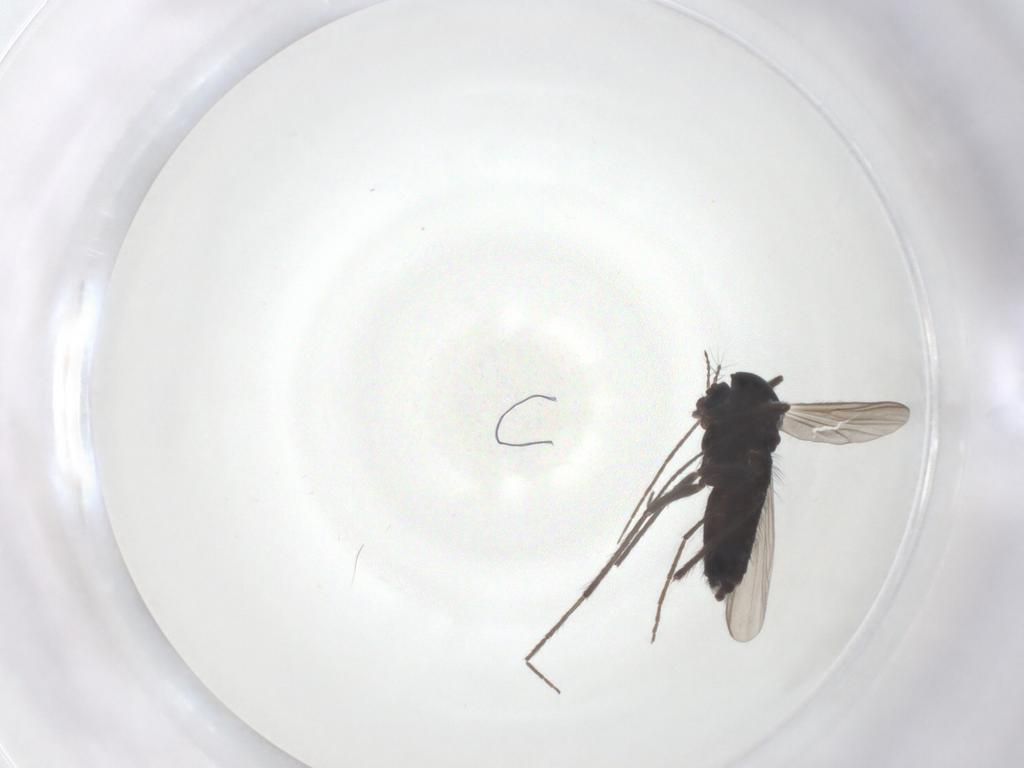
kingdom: Animalia
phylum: Arthropoda
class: Insecta
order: Diptera
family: Chironomidae
